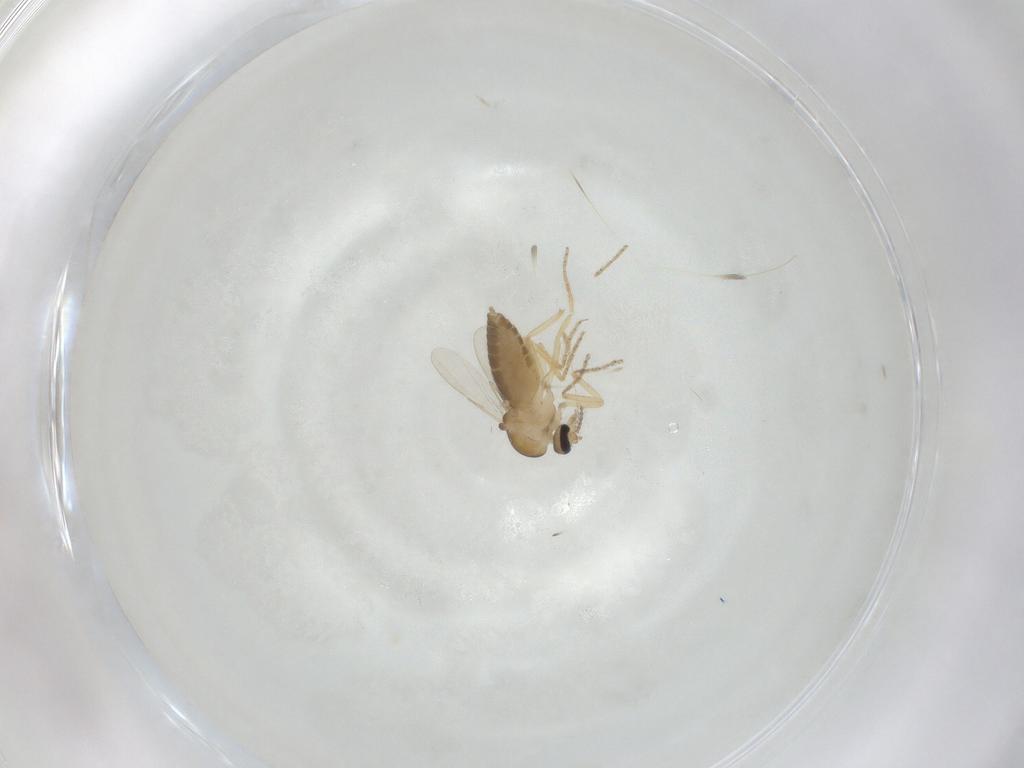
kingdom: Animalia
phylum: Arthropoda
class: Insecta
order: Diptera
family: Ceratopogonidae
